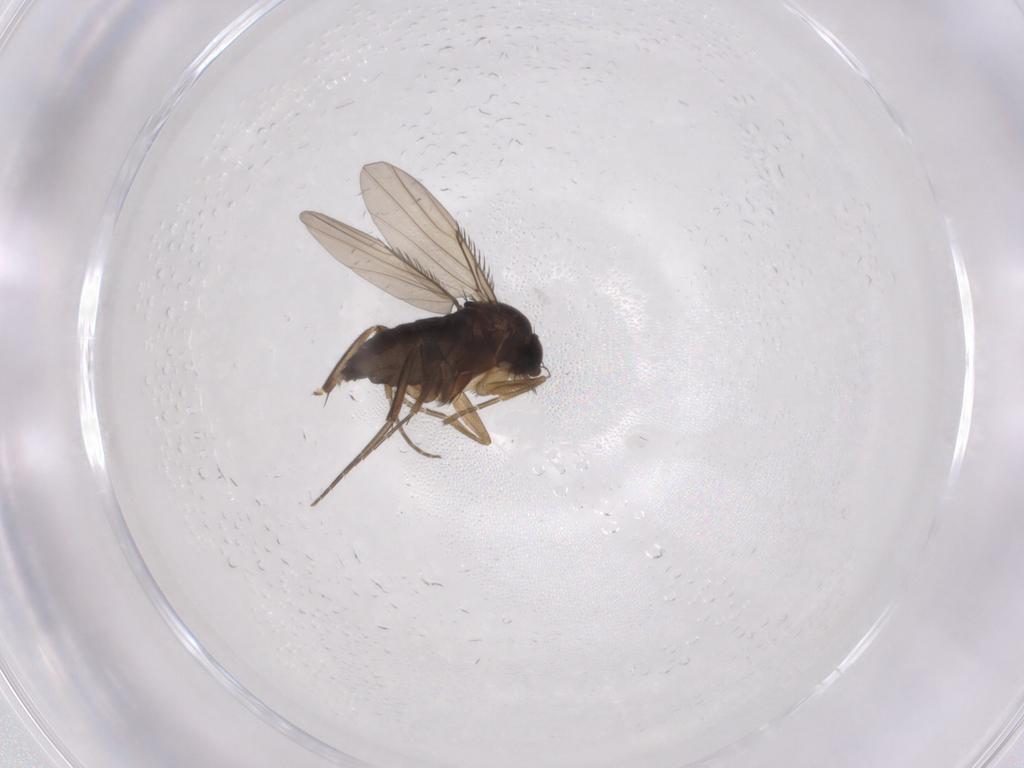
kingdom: Animalia
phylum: Arthropoda
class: Insecta
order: Diptera
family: Phoridae
